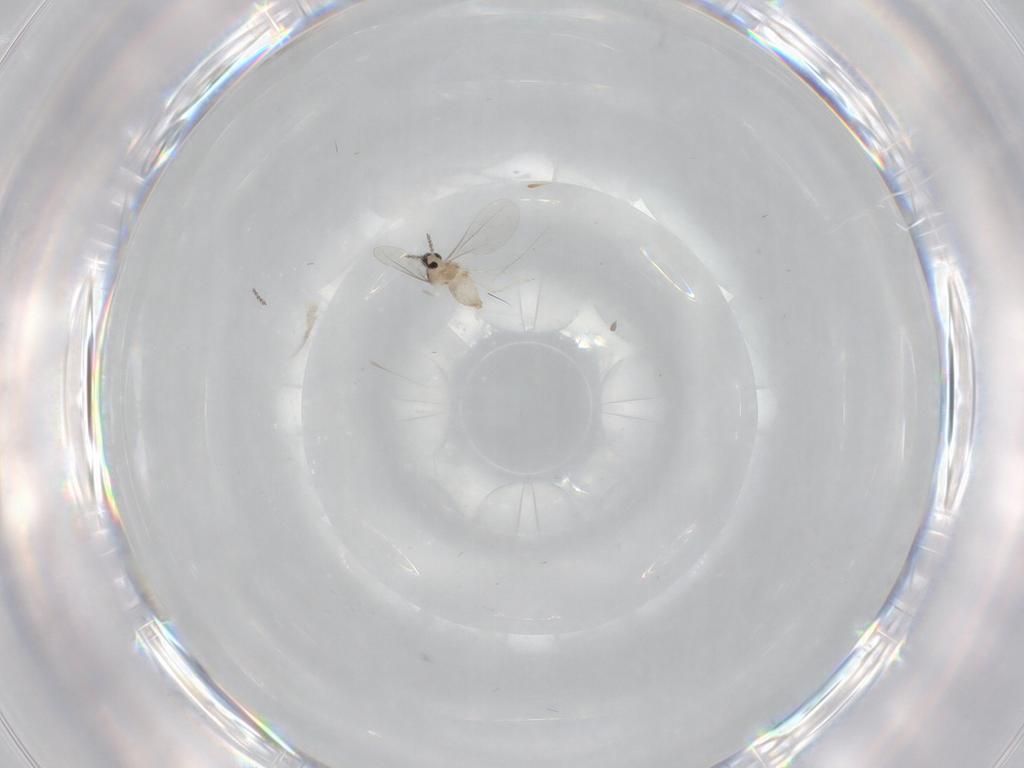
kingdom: Animalia
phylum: Arthropoda
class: Insecta
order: Diptera
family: Cecidomyiidae
